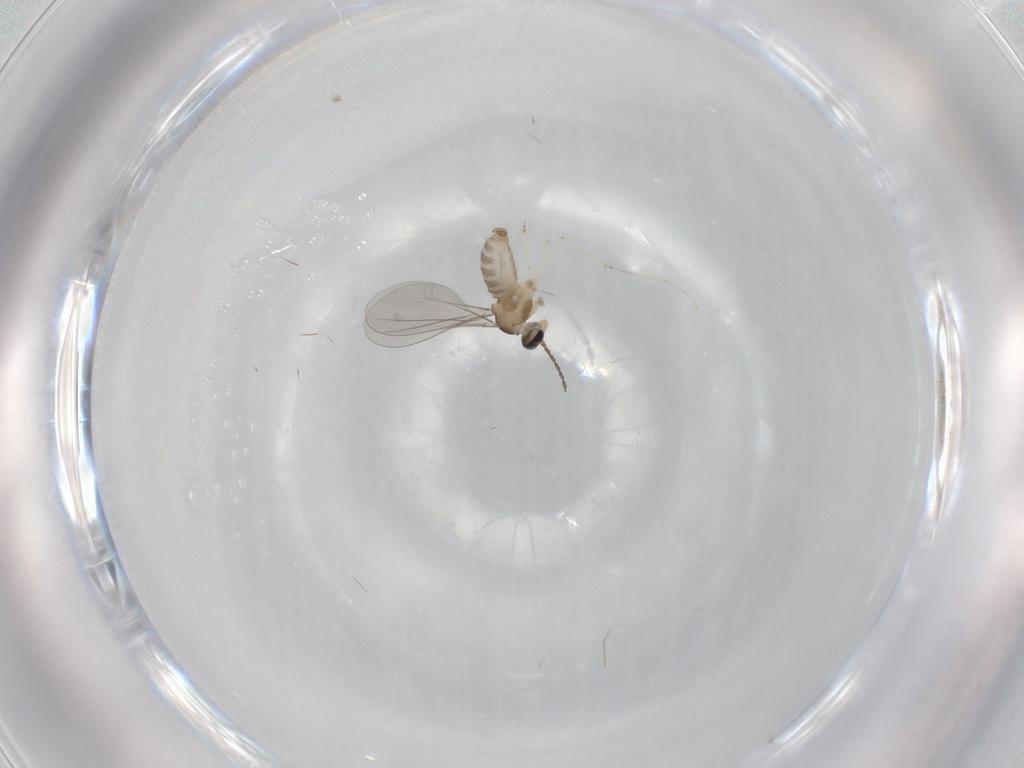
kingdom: Animalia
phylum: Arthropoda
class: Insecta
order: Diptera
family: Cecidomyiidae
